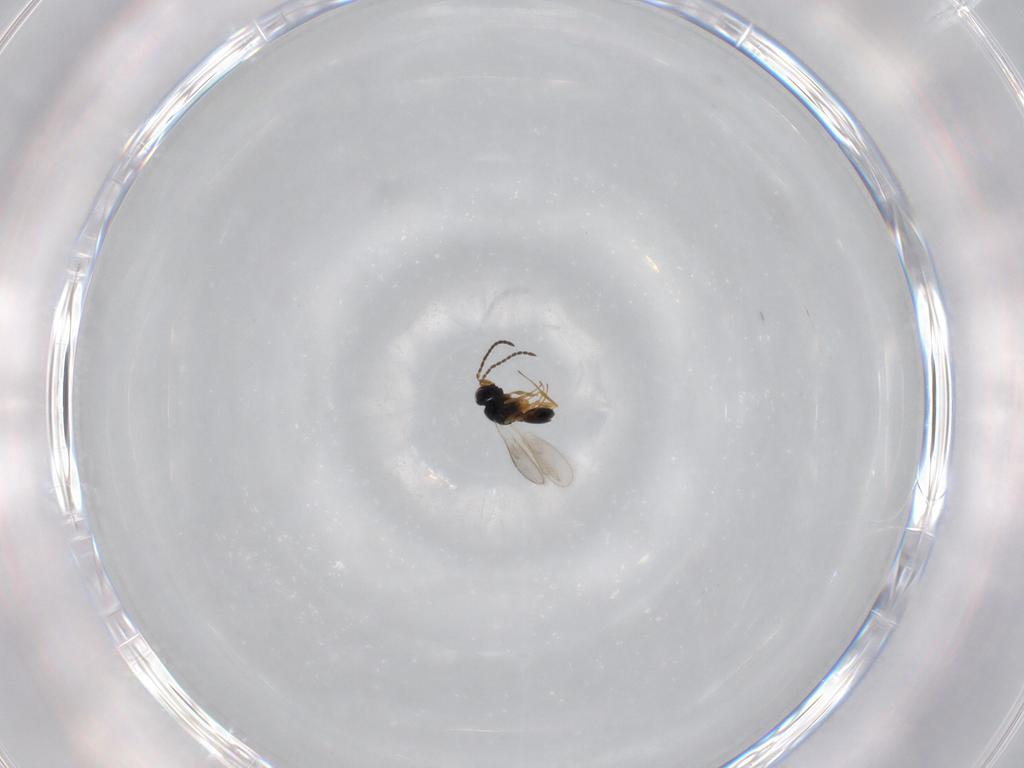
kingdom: Animalia
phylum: Arthropoda
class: Insecta
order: Hymenoptera
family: Scelionidae
